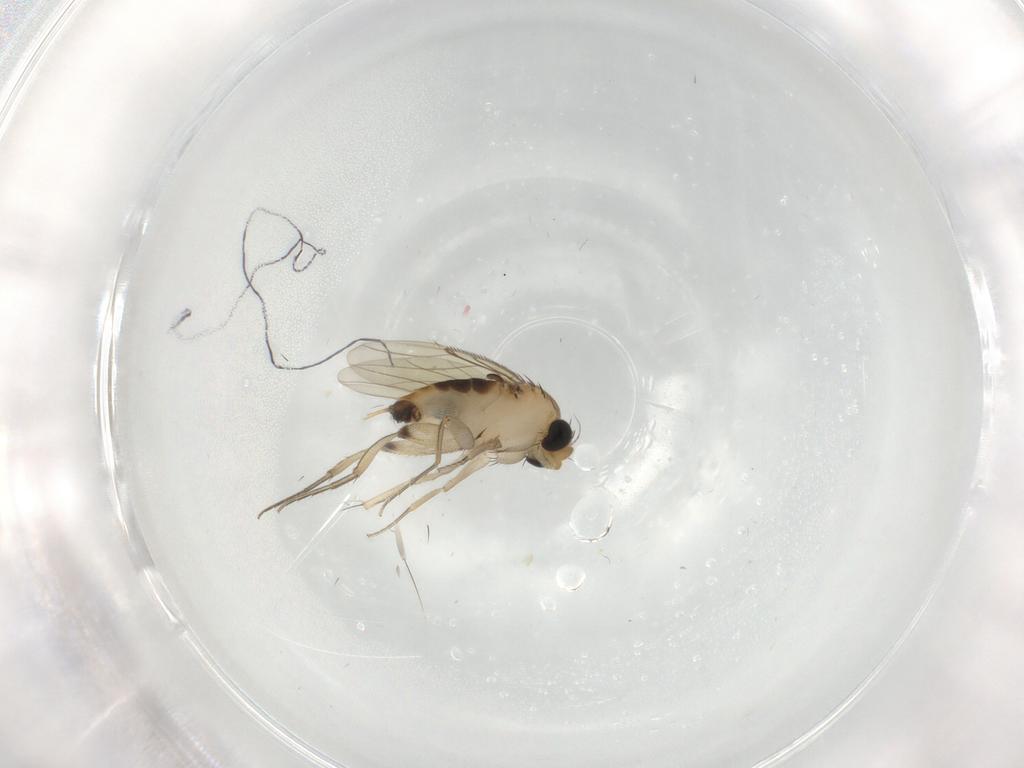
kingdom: Animalia
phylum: Arthropoda
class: Insecta
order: Diptera
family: Phoridae
